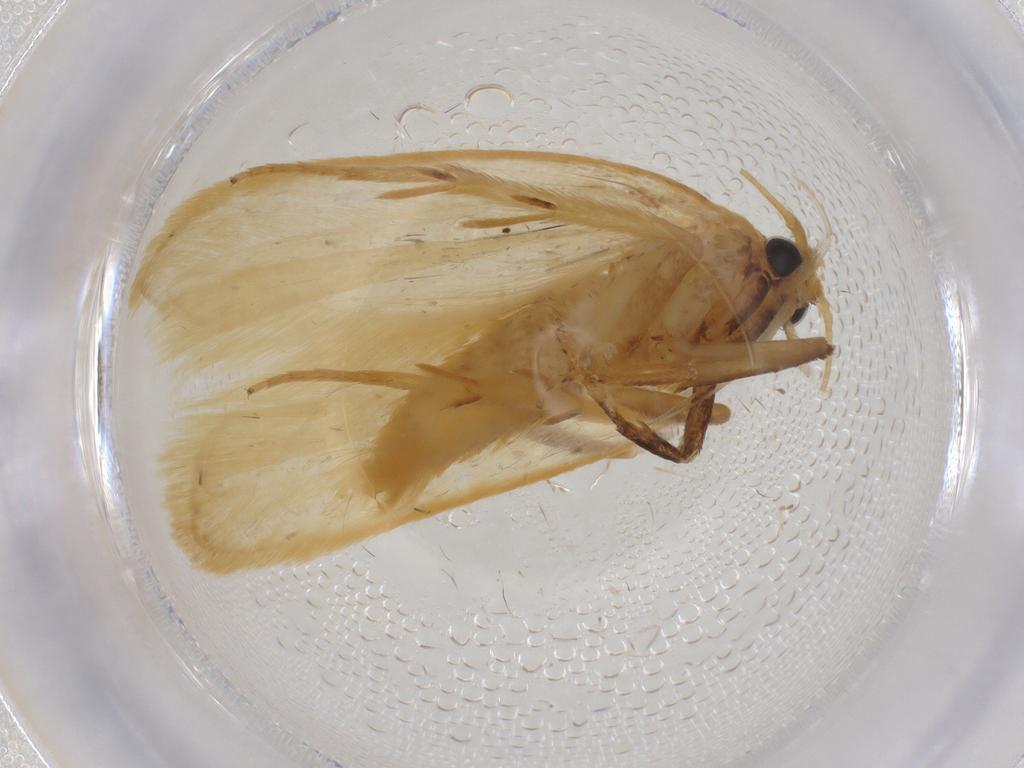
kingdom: Animalia
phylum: Arthropoda
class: Insecta
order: Lepidoptera
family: Depressariidae
